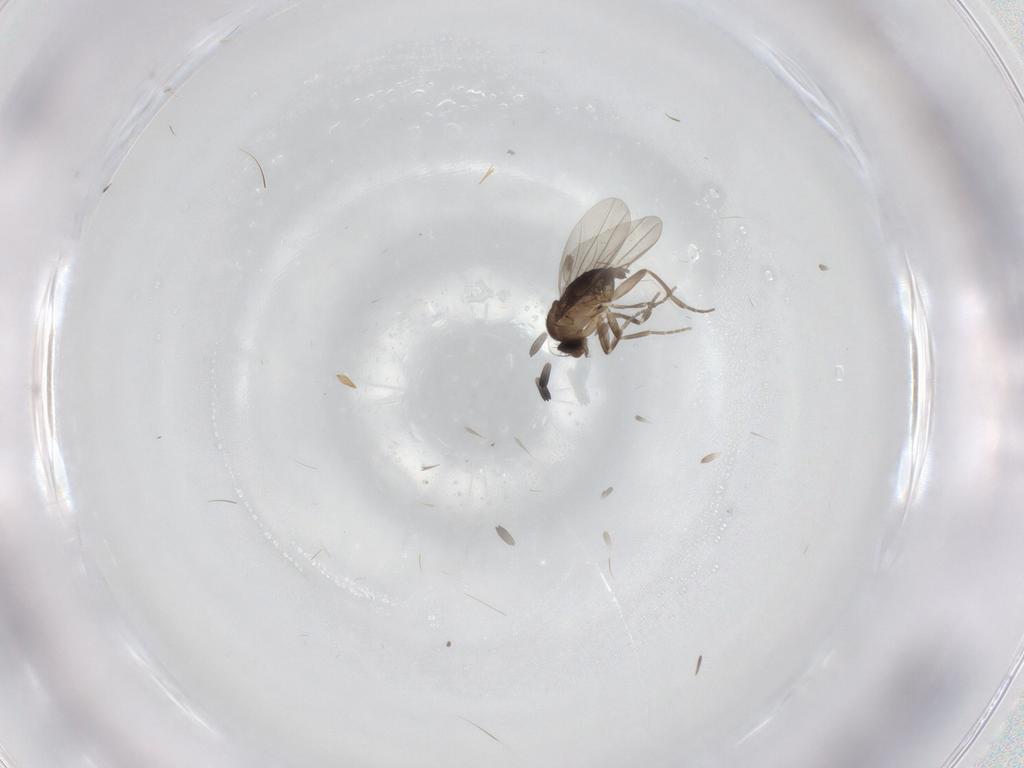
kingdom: Animalia
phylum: Arthropoda
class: Insecta
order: Diptera
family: Chironomidae
